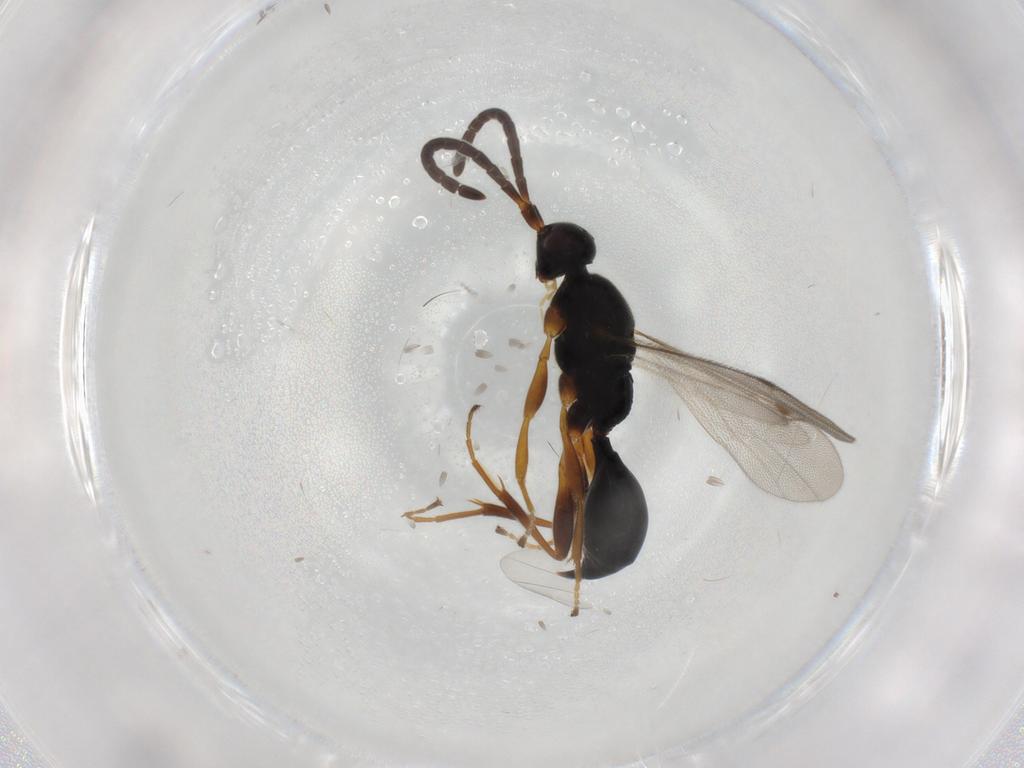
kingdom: Animalia
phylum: Arthropoda
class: Insecta
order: Hymenoptera
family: Proctotrupidae
